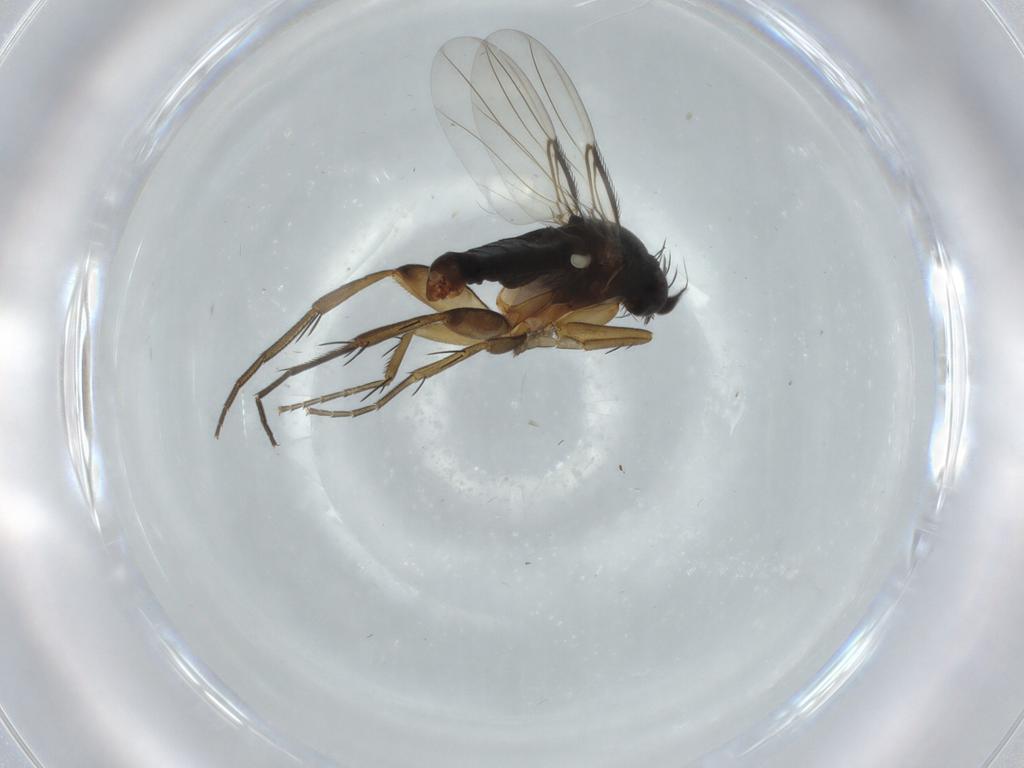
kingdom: Animalia
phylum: Arthropoda
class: Insecta
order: Diptera
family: Phoridae
